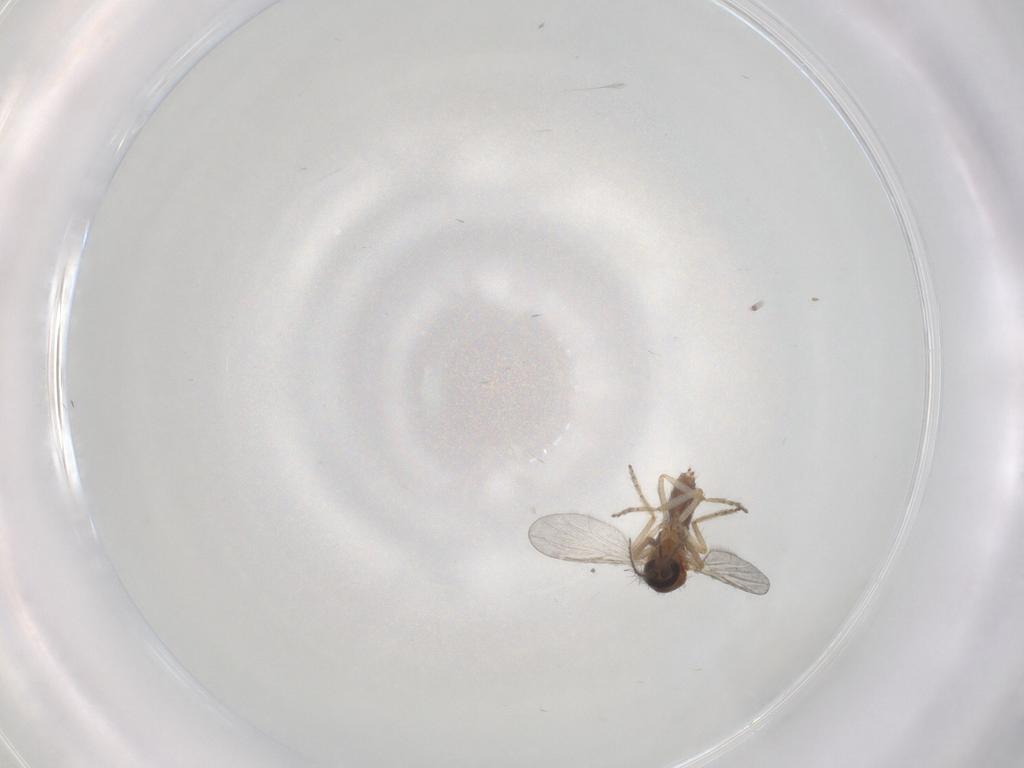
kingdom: Animalia
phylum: Arthropoda
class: Insecta
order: Diptera
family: Ceratopogonidae
